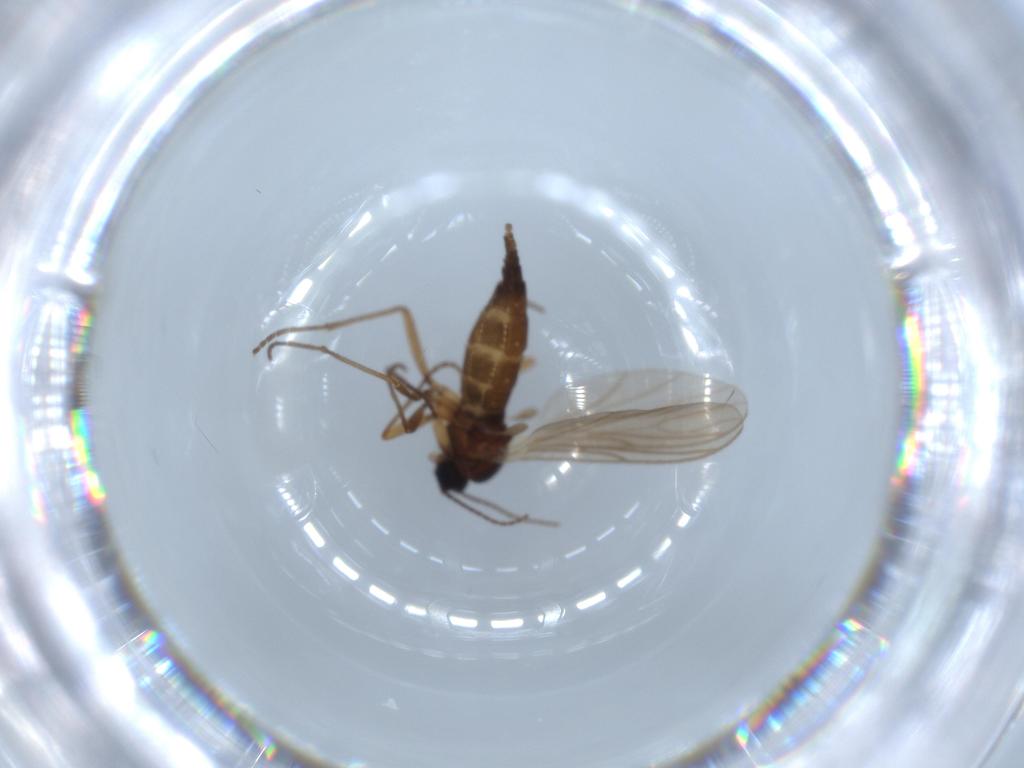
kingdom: Animalia
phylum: Arthropoda
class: Insecta
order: Diptera
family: Sciaridae
